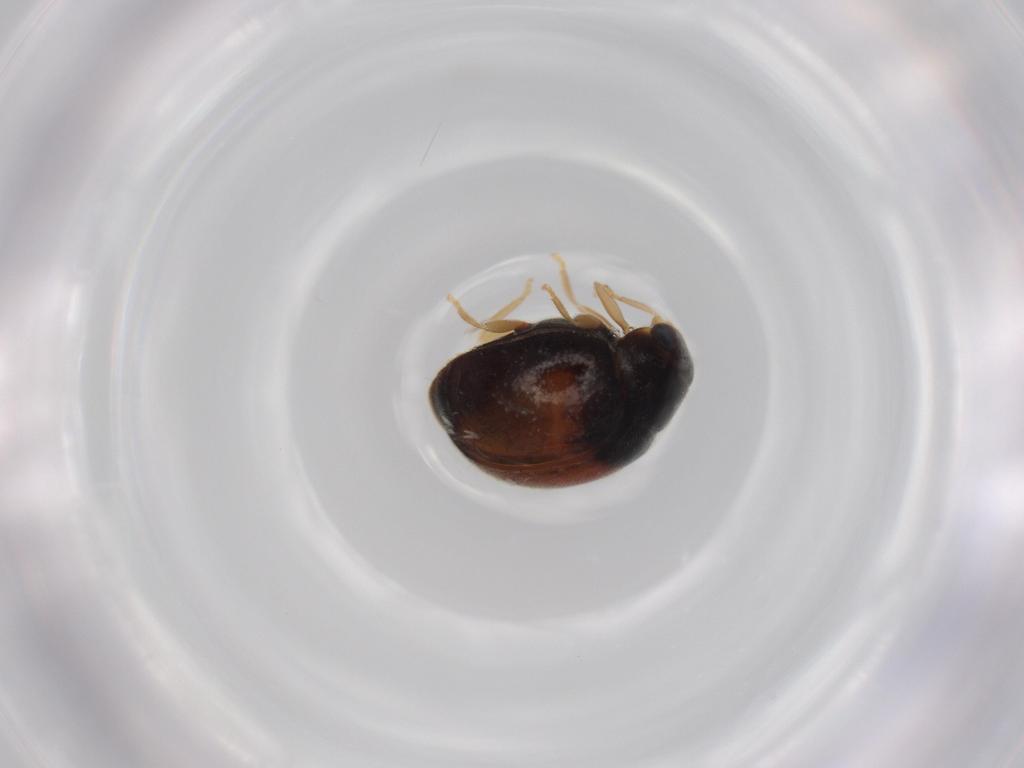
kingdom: Animalia
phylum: Arthropoda
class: Insecta
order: Coleoptera
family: Coccinellidae
